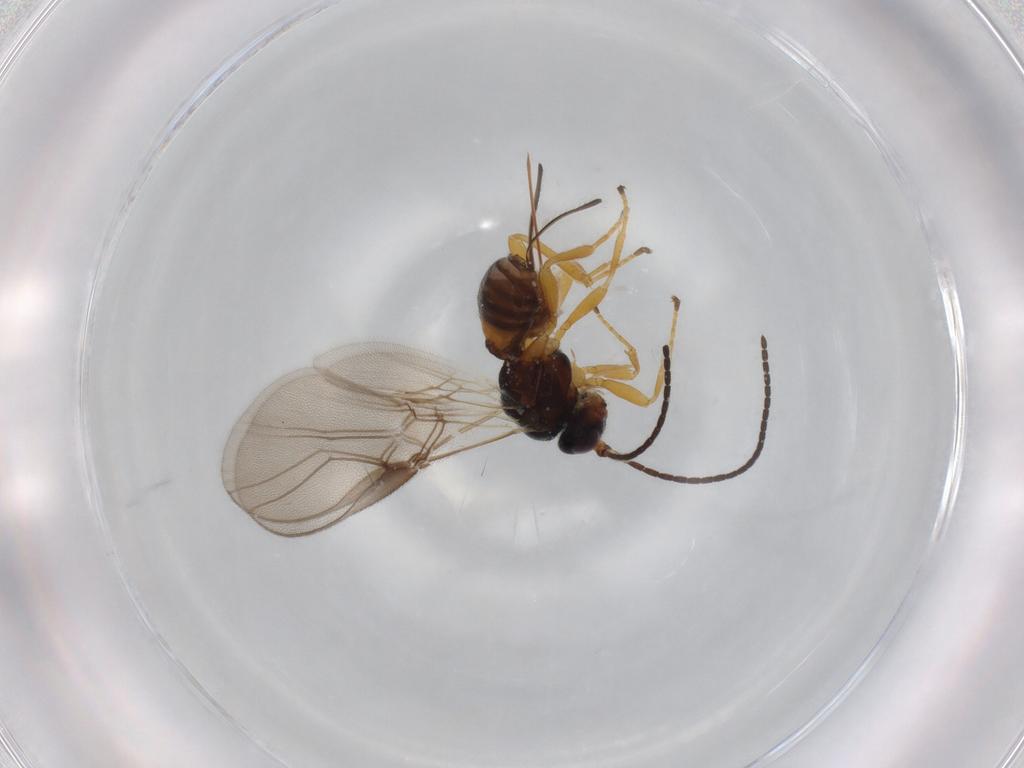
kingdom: Animalia
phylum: Arthropoda
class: Insecta
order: Hymenoptera
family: Braconidae
